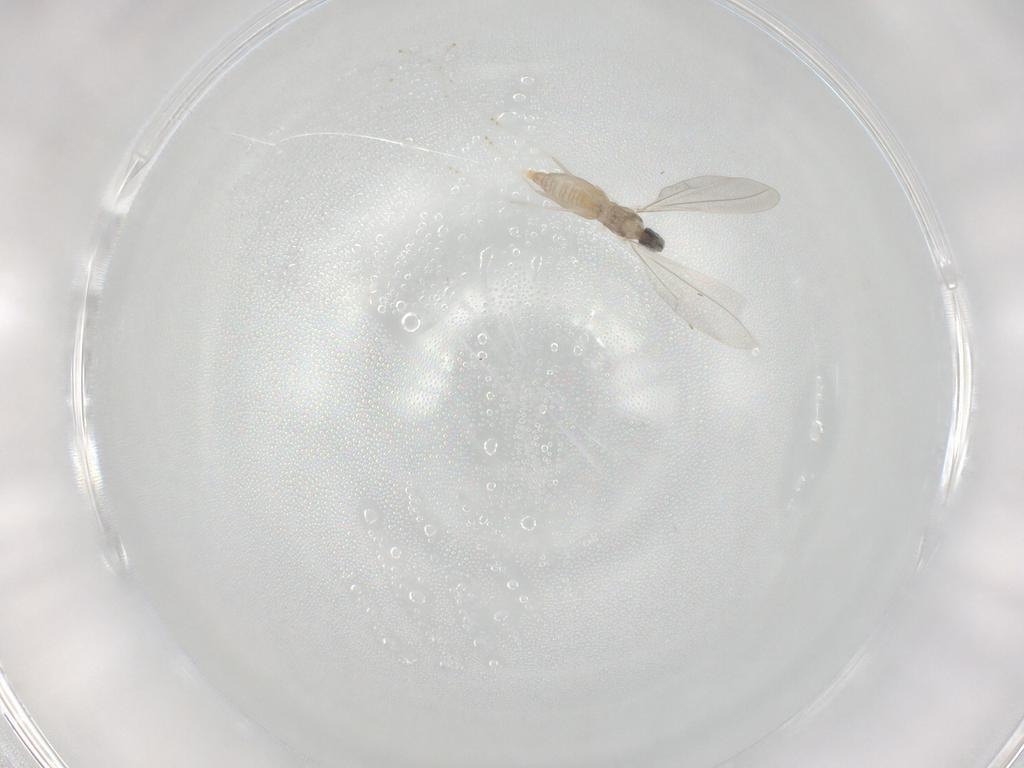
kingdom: Animalia
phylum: Arthropoda
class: Insecta
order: Diptera
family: Cecidomyiidae
